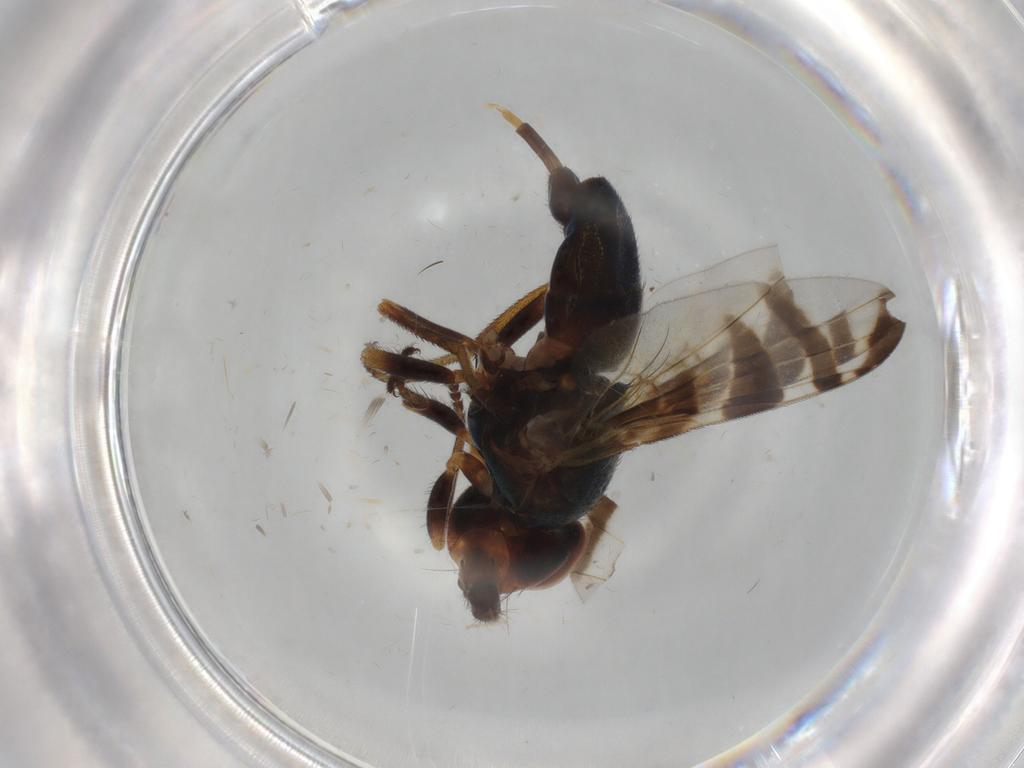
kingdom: Animalia
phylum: Arthropoda
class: Insecta
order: Diptera
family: Platystomatidae
